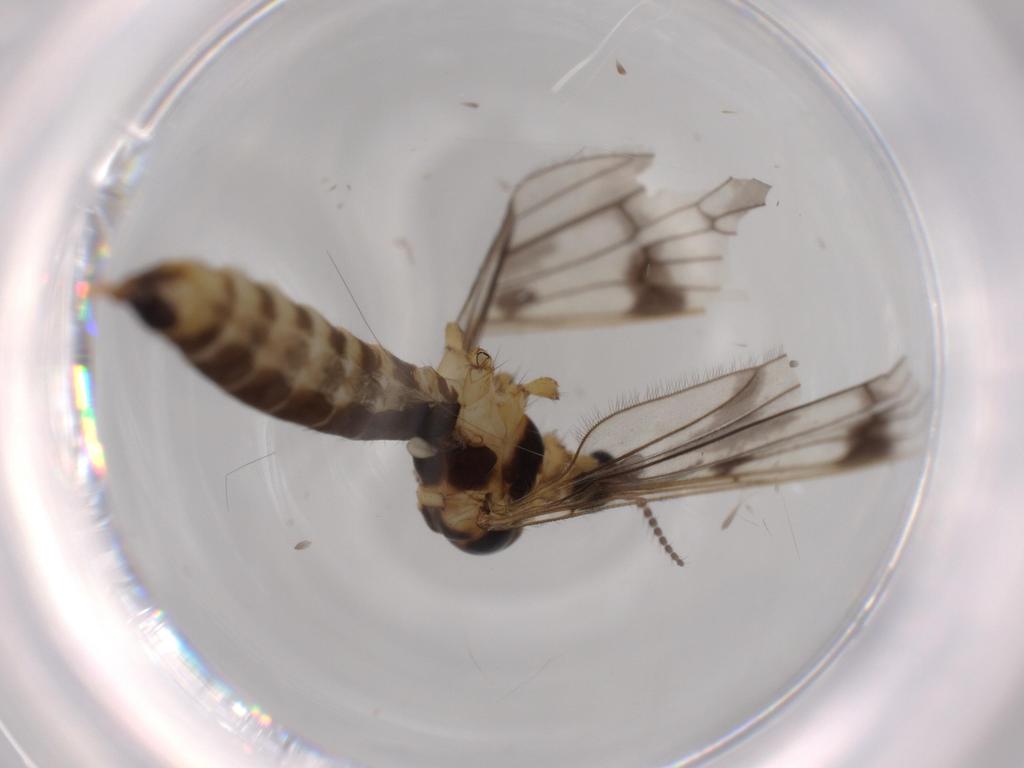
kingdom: Animalia
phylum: Arthropoda
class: Insecta
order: Diptera
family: Limoniidae
